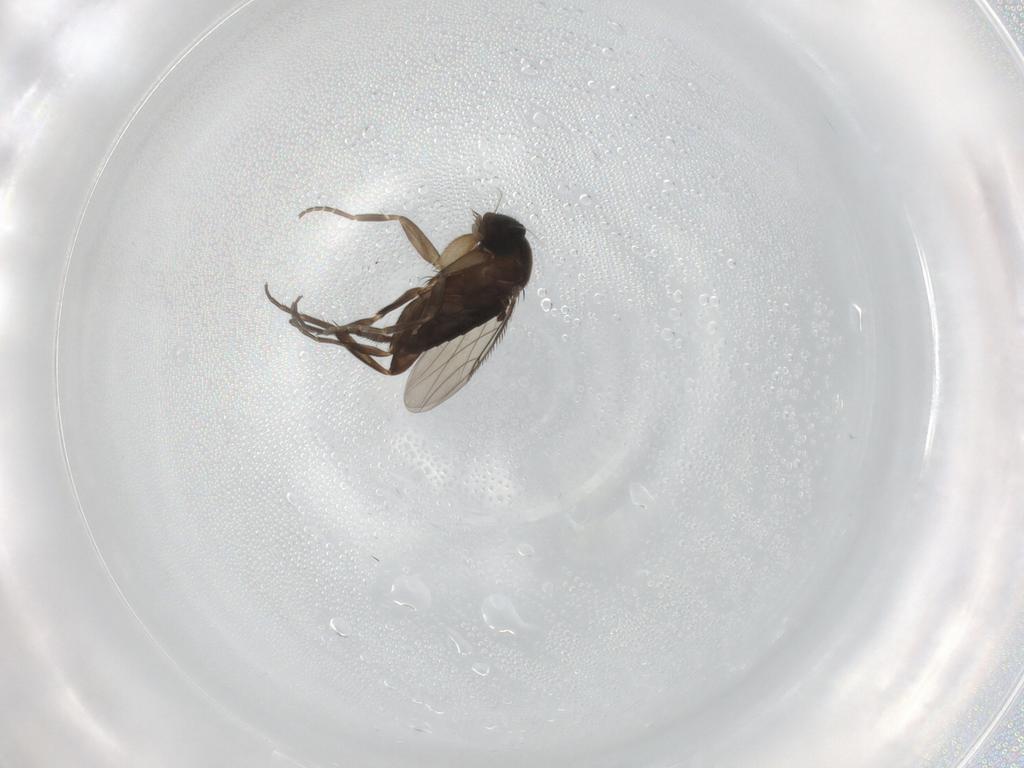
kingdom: Animalia
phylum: Arthropoda
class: Insecta
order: Diptera
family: Phoridae
